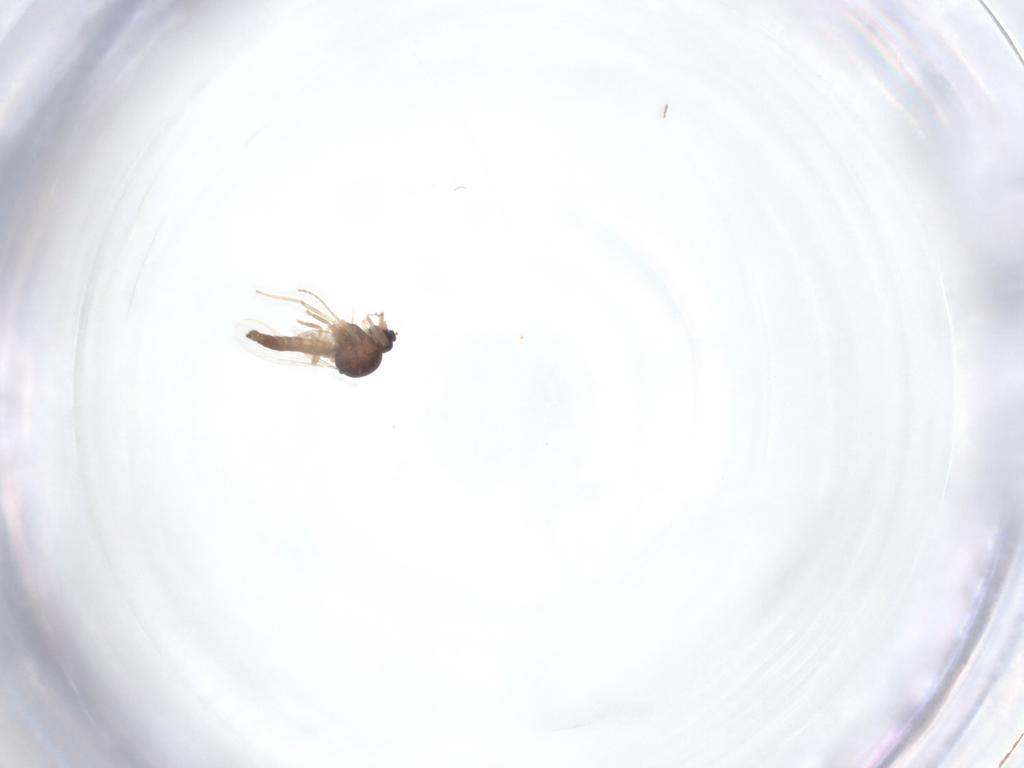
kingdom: Animalia
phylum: Arthropoda
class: Insecta
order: Diptera
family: Ceratopogonidae
